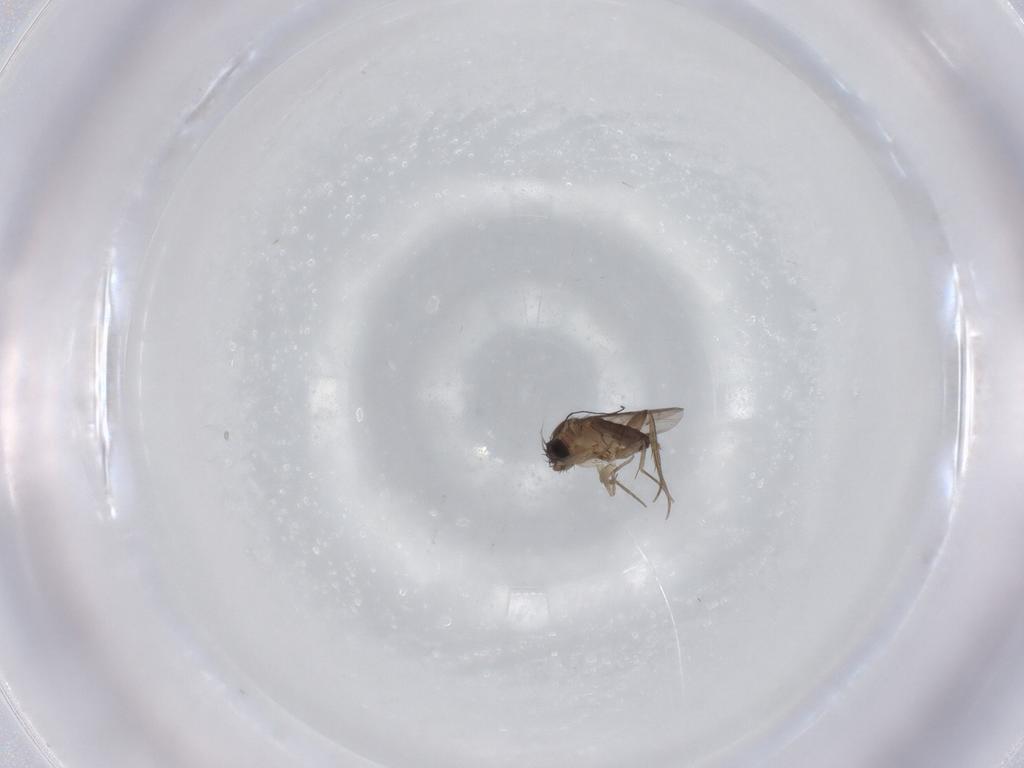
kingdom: Animalia
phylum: Arthropoda
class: Insecta
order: Diptera
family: Phoridae
